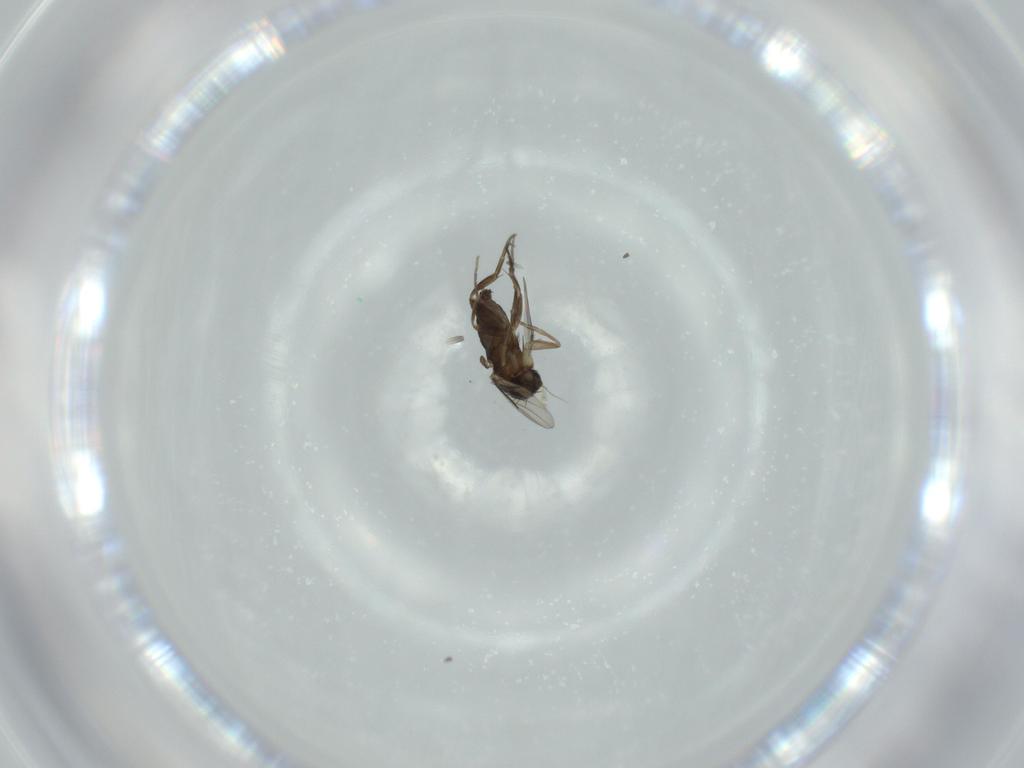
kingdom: Animalia
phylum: Arthropoda
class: Insecta
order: Diptera
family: Phoridae
